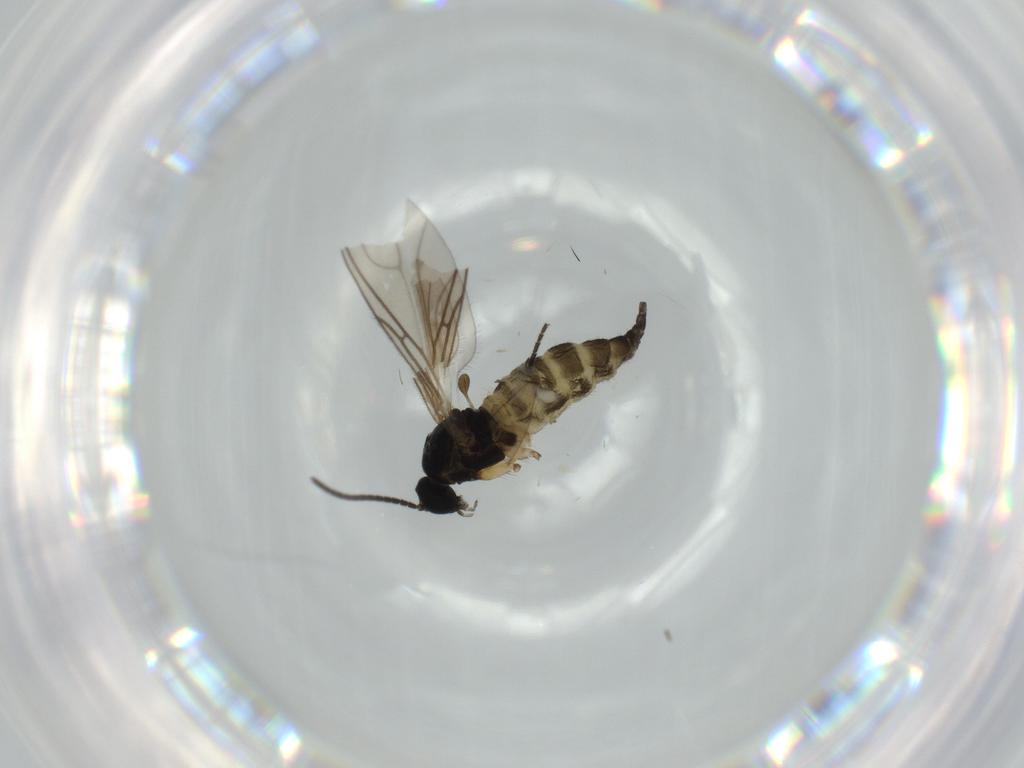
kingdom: Animalia
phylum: Arthropoda
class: Insecta
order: Diptera
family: Sciaridae
